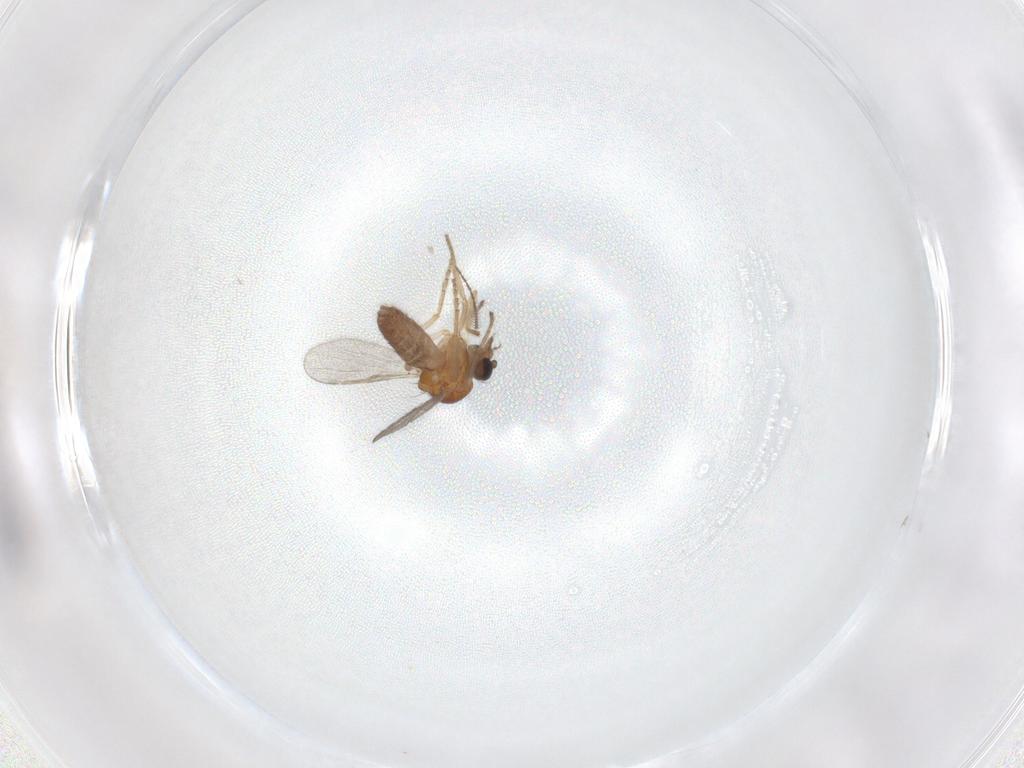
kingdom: Animalia
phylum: Arthropoda
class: Insecta
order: Diptera
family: Ceratopogonidae
